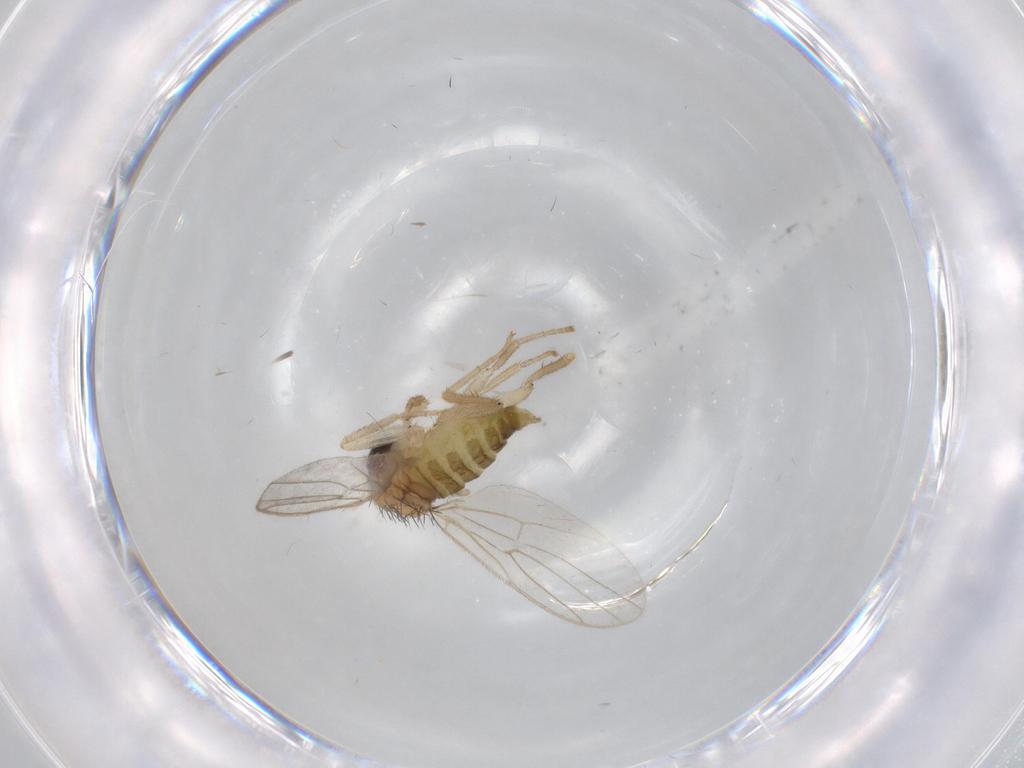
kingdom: Animalia
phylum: Arthropoda
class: Insecta
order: Diptera
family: Hybotidae
